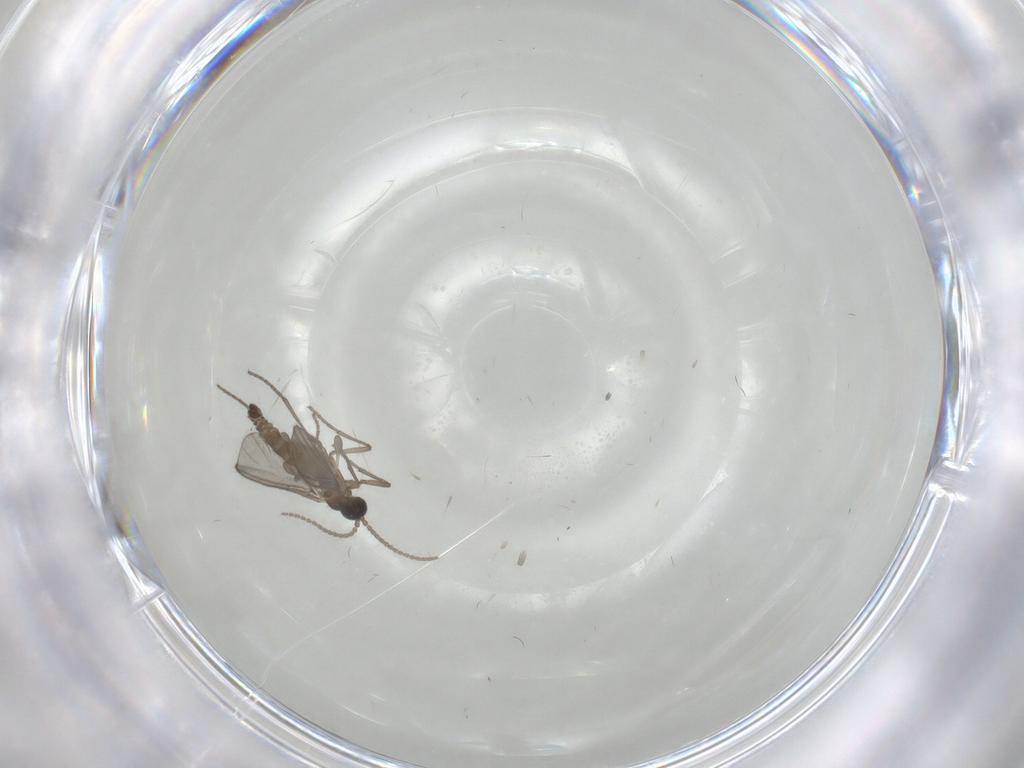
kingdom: Animalia
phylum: Arthropoda
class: Insecta
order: Diptera
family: Sciaridae
